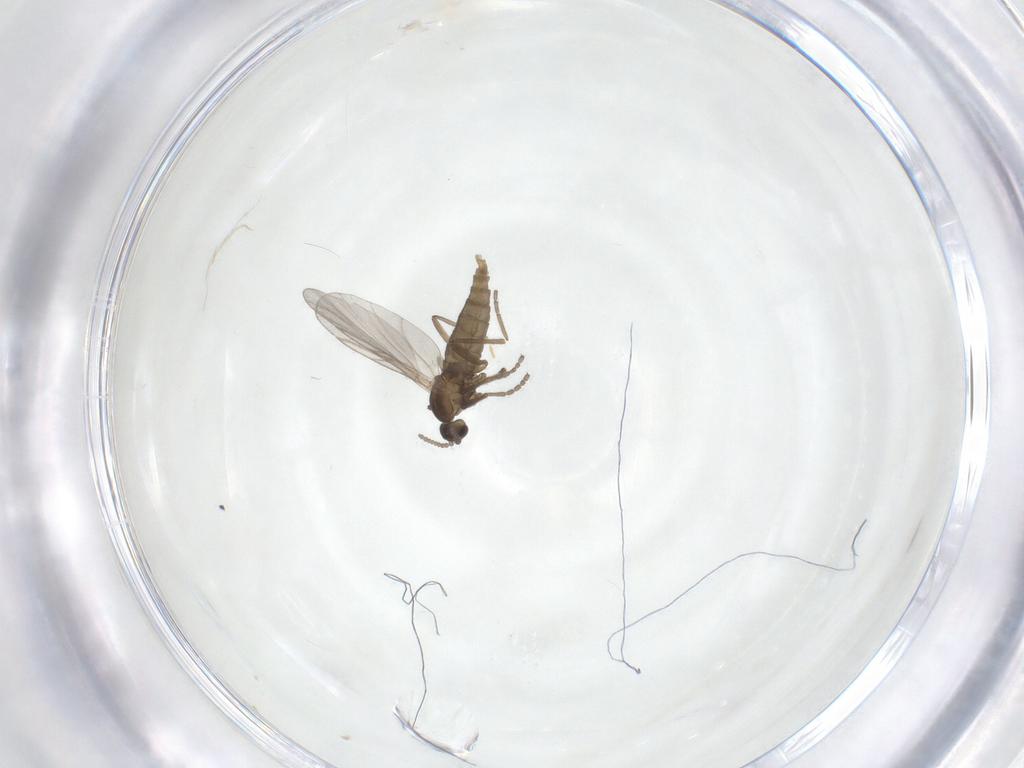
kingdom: Animalia
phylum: Arthropoda
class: Insecta
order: Diptera
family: Cecidomyiidae
